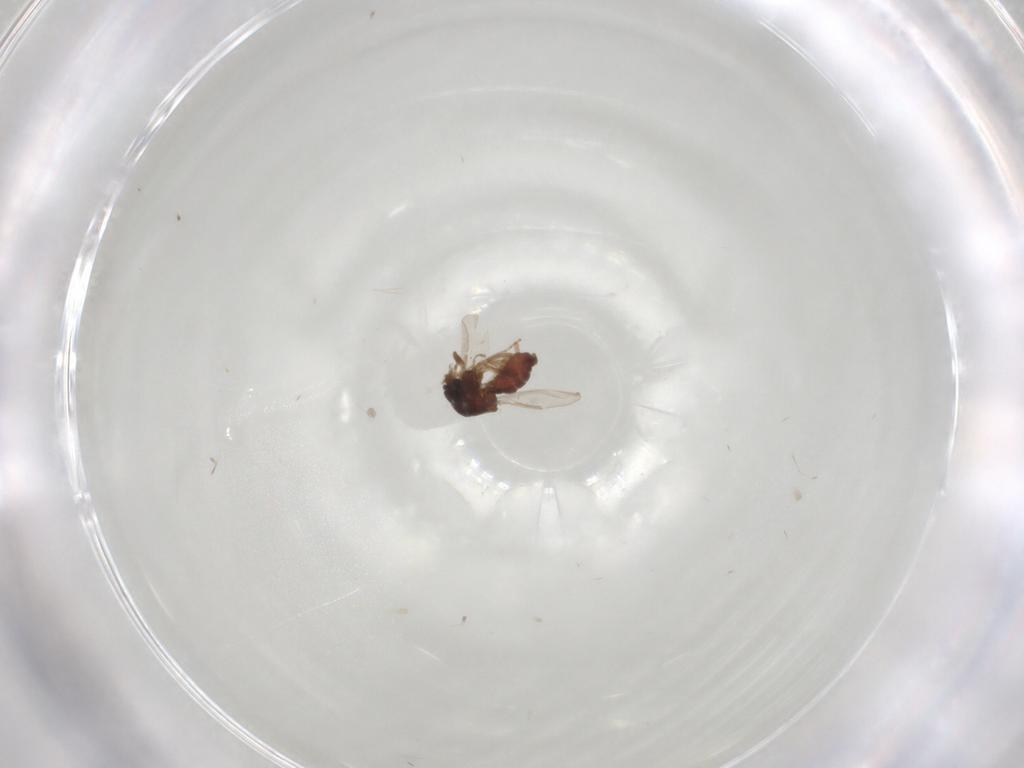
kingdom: Animalia
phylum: Arthropoda
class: Insecta
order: Diptera
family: Ceratopogonidae
